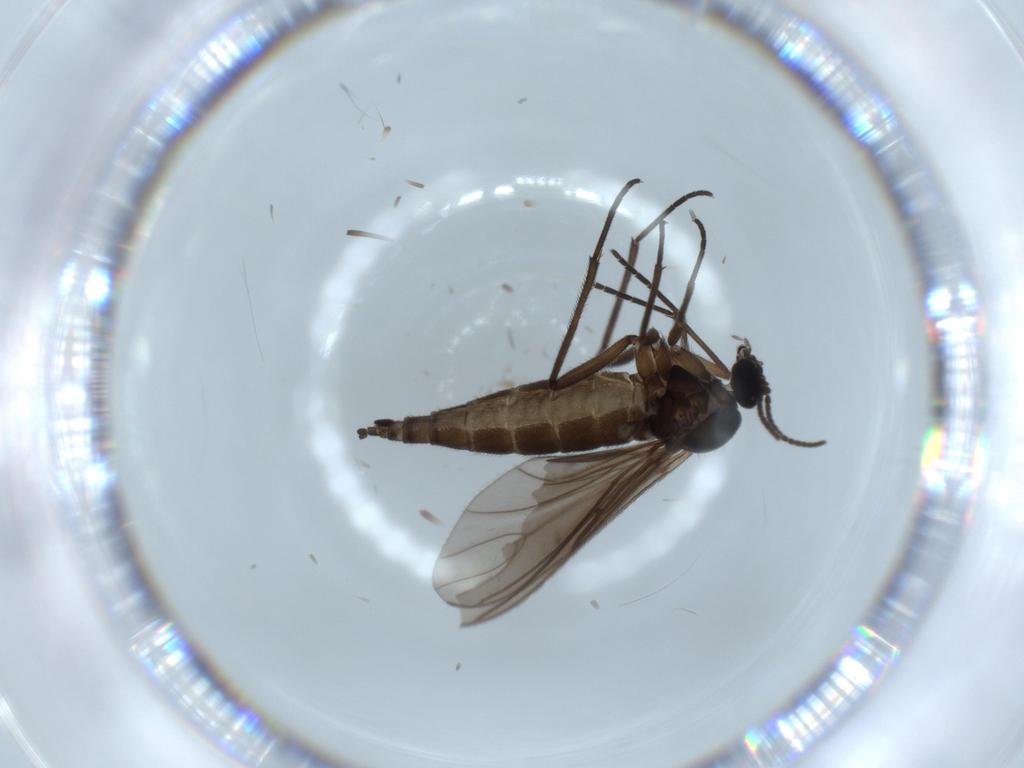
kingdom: Animalia
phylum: Arthropoda
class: Insecta
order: Diptera
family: Sciaridae
